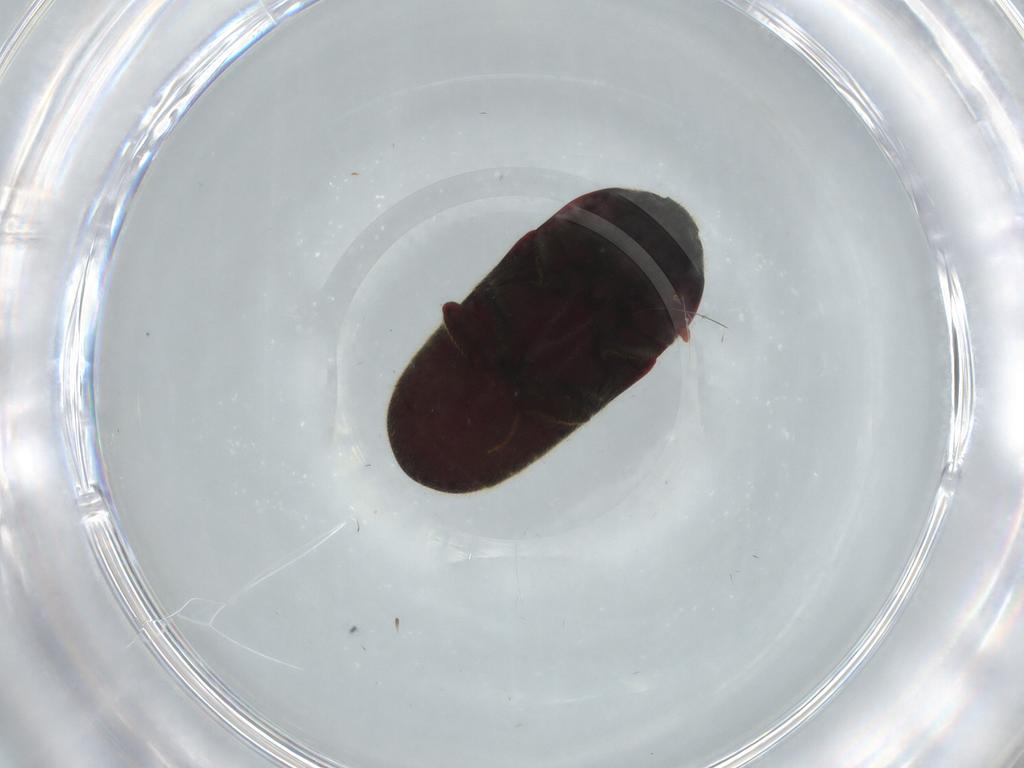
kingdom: Animalia
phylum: Arthropoda
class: Insecta
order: Coleoptera
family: Throscidae
